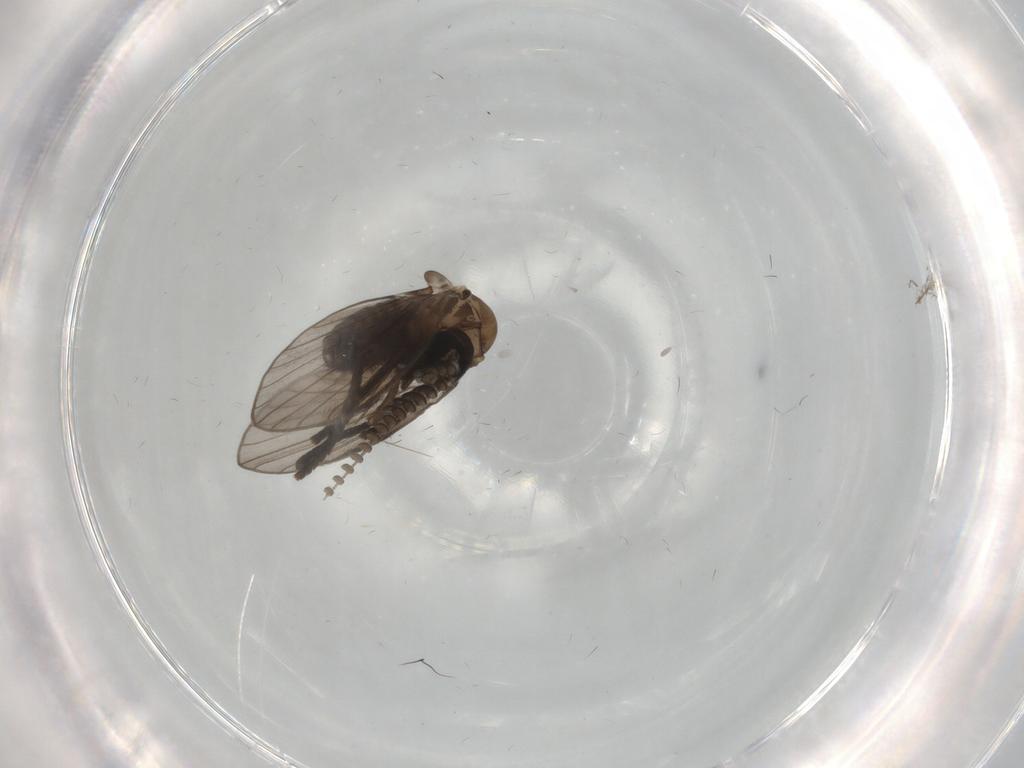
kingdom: Animalia
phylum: Arthropoda
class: Insecta
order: Diptera
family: Psychodidae
